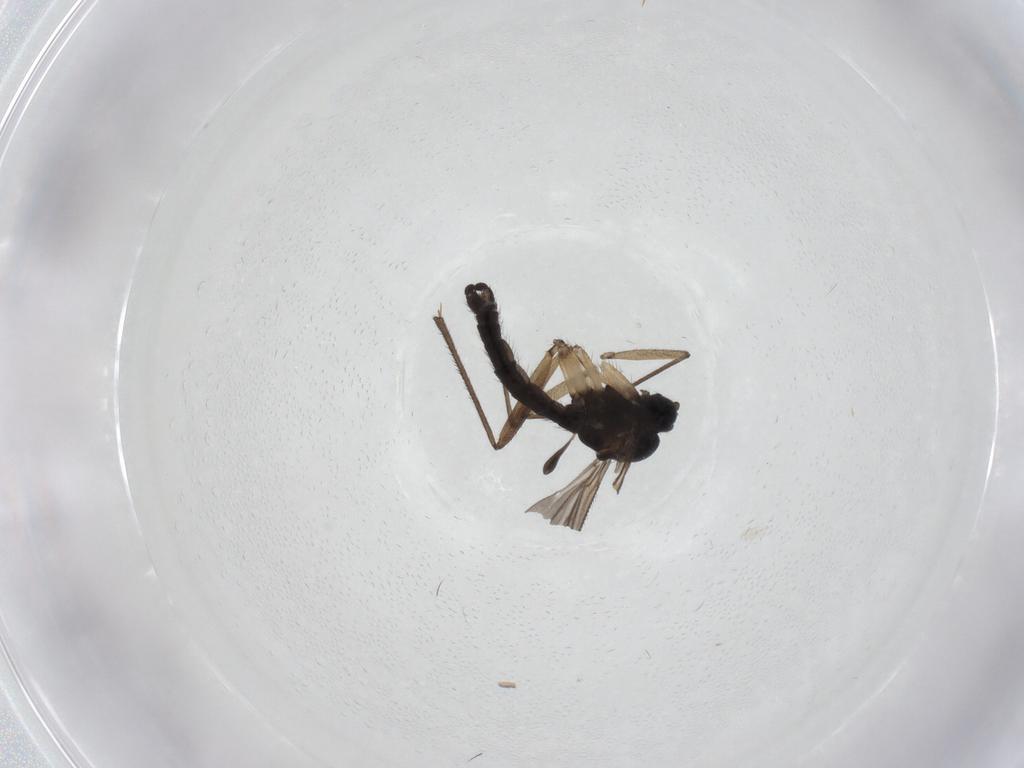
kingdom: Animalia
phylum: Arthropoda
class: Insecta
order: Diptera
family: Sciaridae
